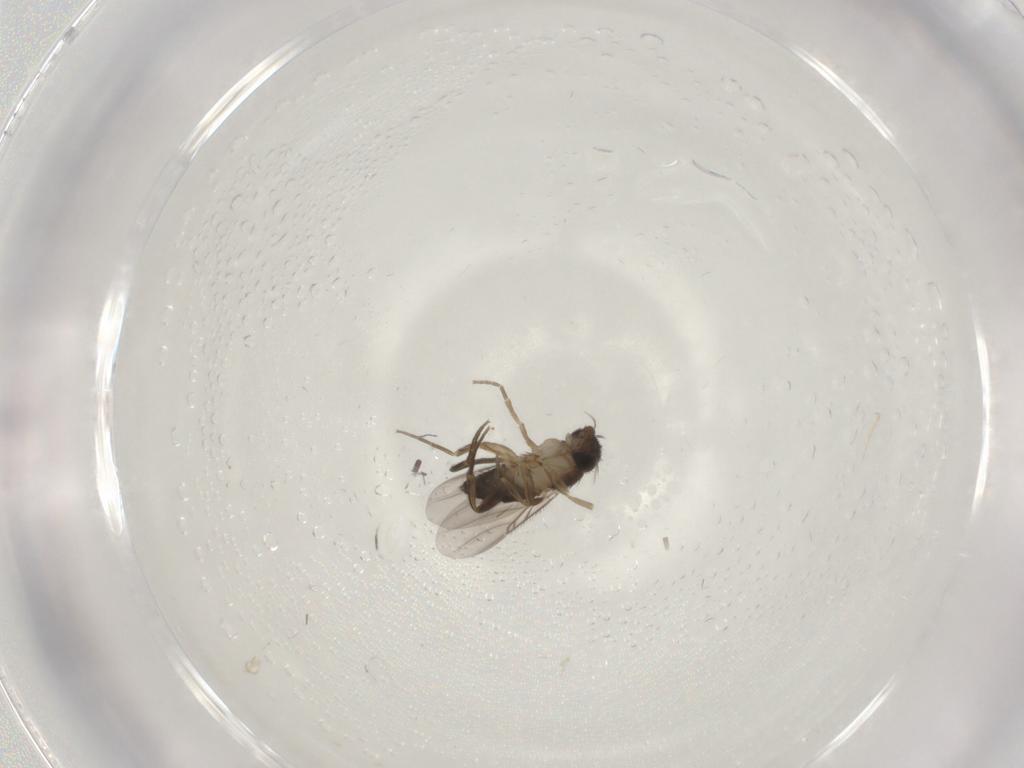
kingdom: Animalia
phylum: Arthropoda
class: Insecta
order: Diptera
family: Phoridae
